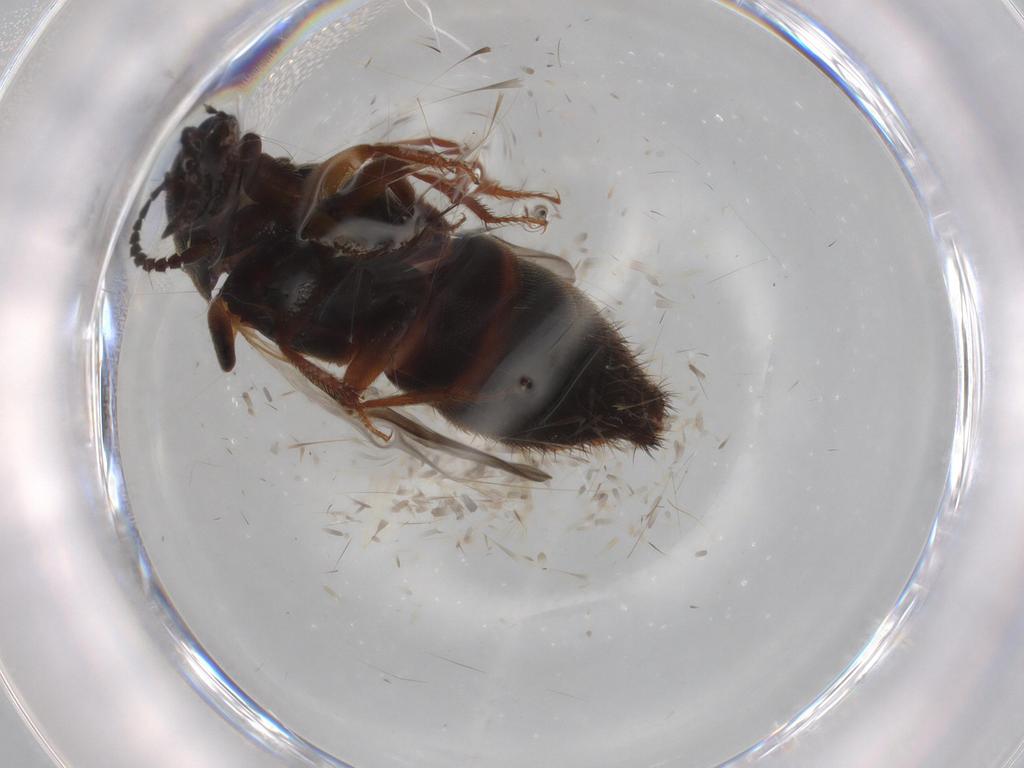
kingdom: Animalia
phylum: Arthropoda
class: Insecta
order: Coleoptera
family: Staphylinidae
